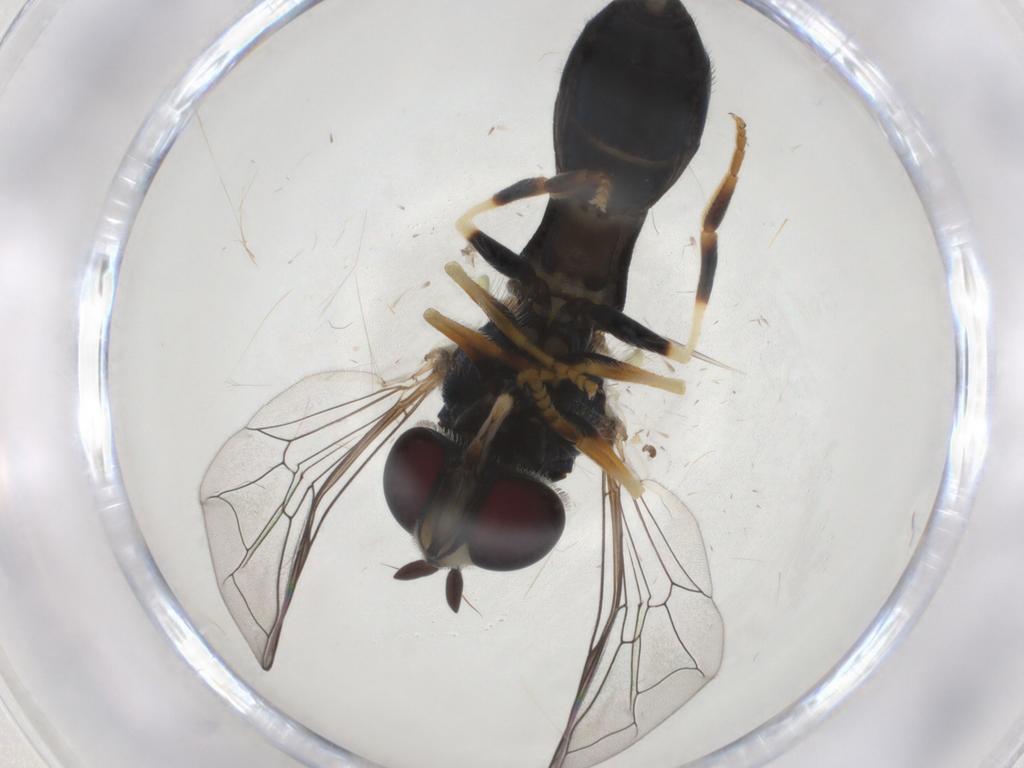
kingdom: Animalia
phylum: Arthropoda
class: Insecta
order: Diptera
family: Syrphidae
